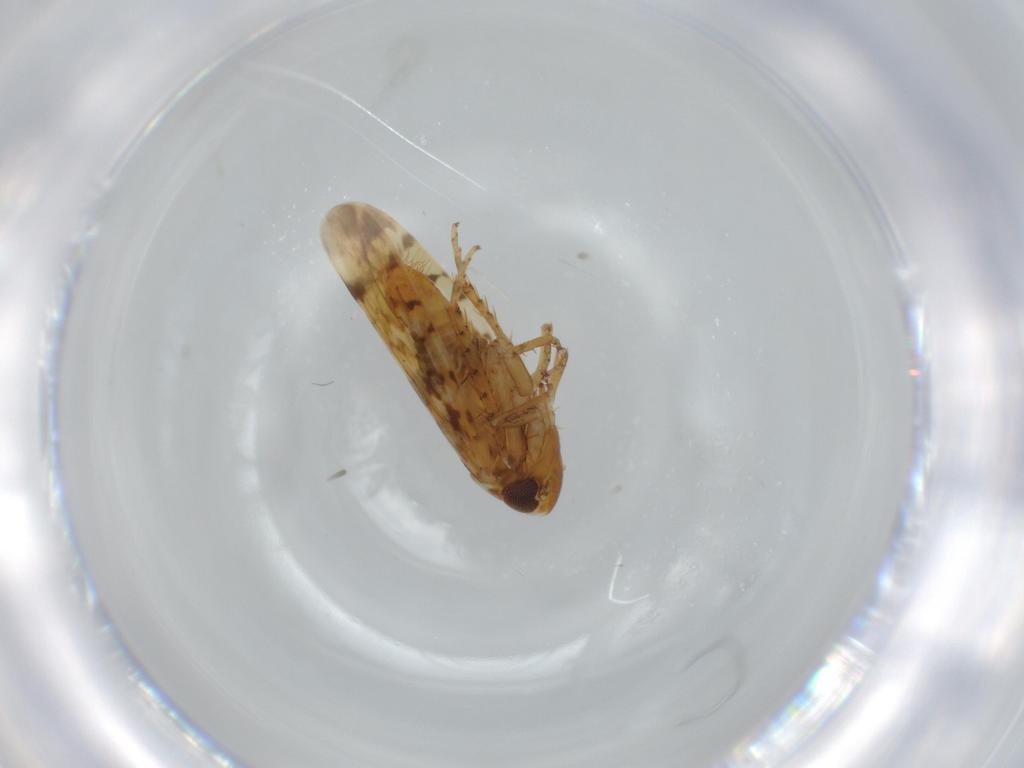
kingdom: Animalia
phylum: Arthropoda
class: Insecta
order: Hemiptera
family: Cicadellidae
